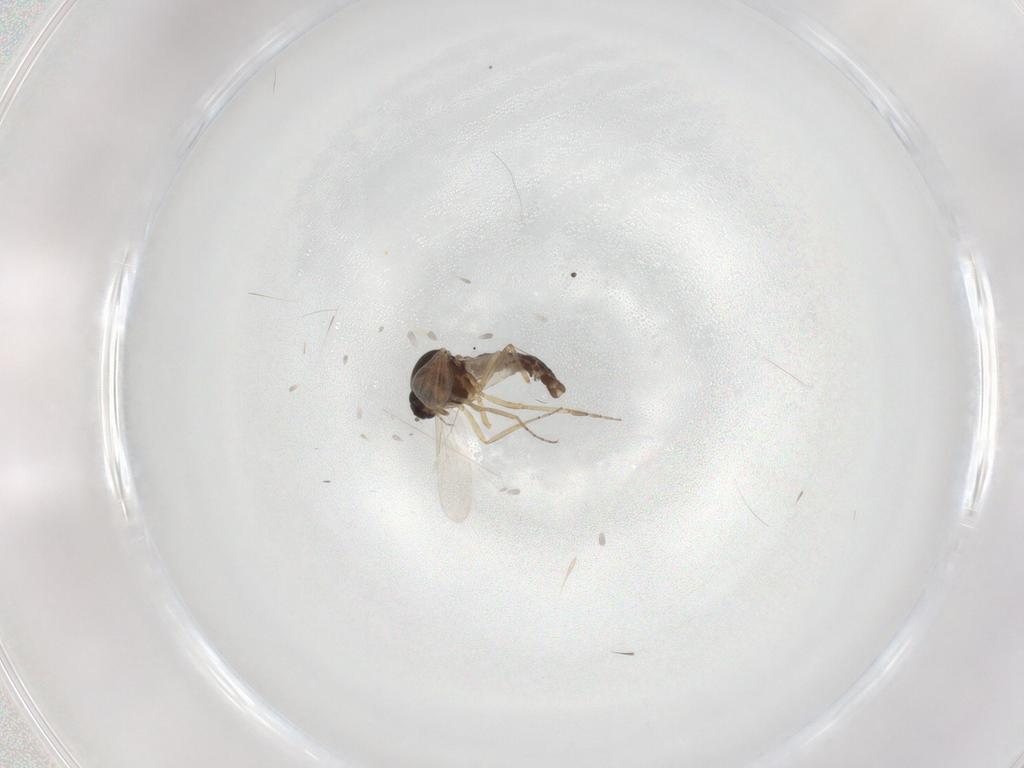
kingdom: Animalia
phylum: Arthropoda
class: Insecta
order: Diptera
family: Ceratopogonidae
